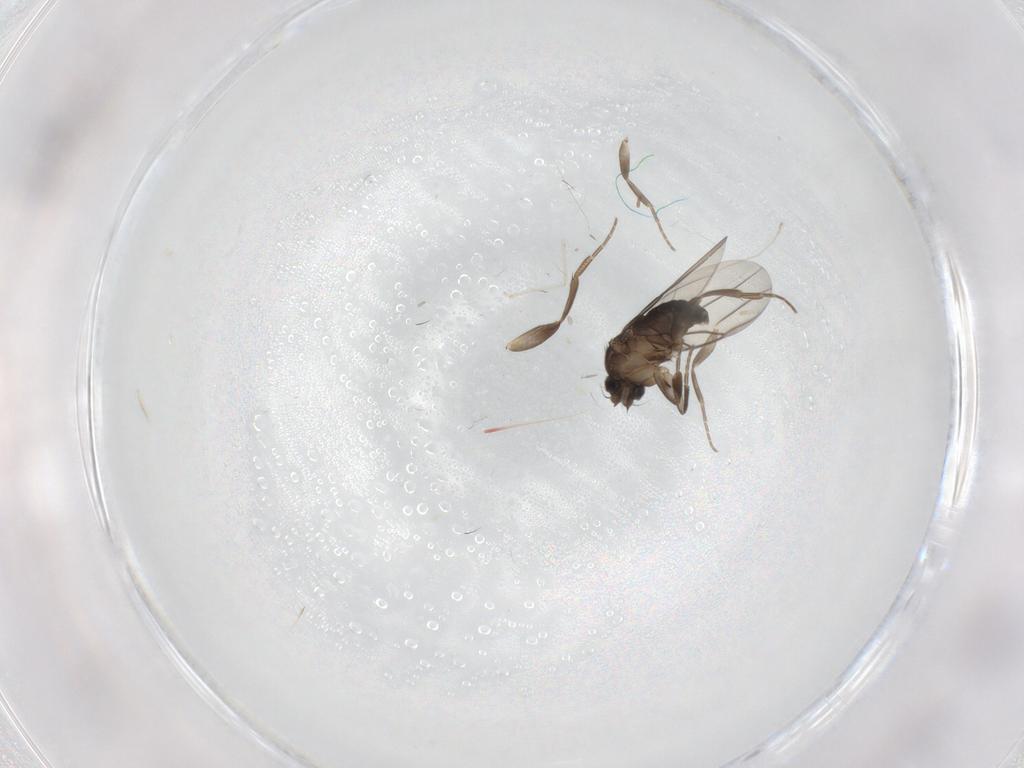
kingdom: Animalia
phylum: Arthropoda
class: Insecta
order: Diptera
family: Phoridae
